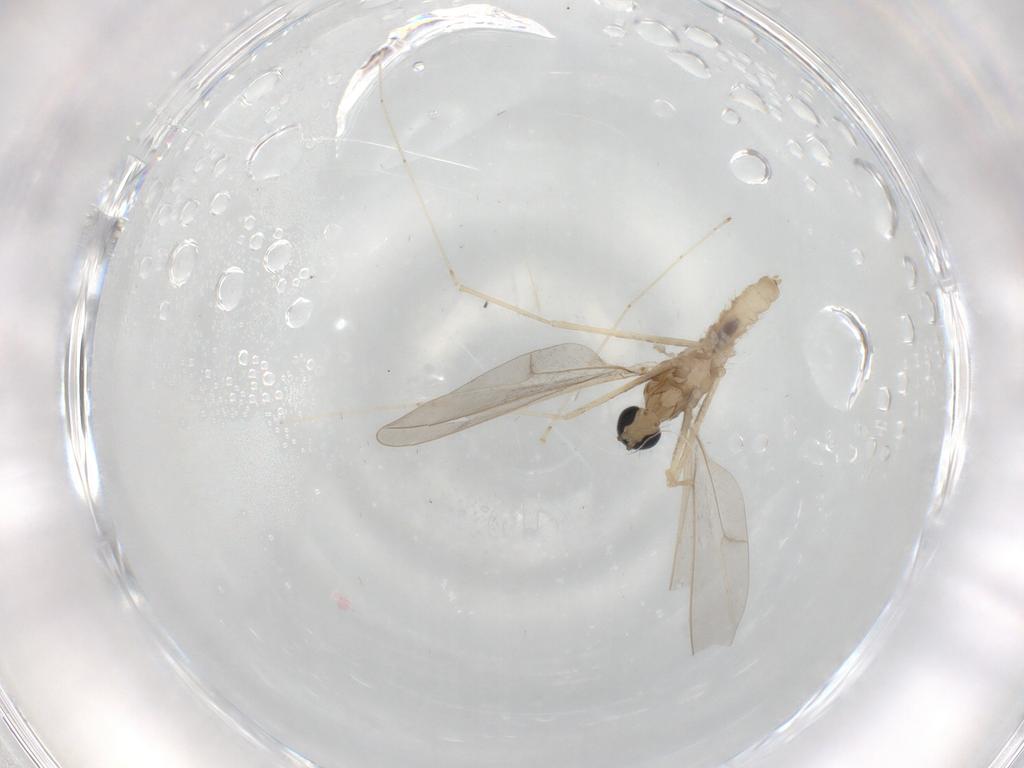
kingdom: Animalia
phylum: Arthropoda
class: Insecta
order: Diptera
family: Cecidomyiidae
